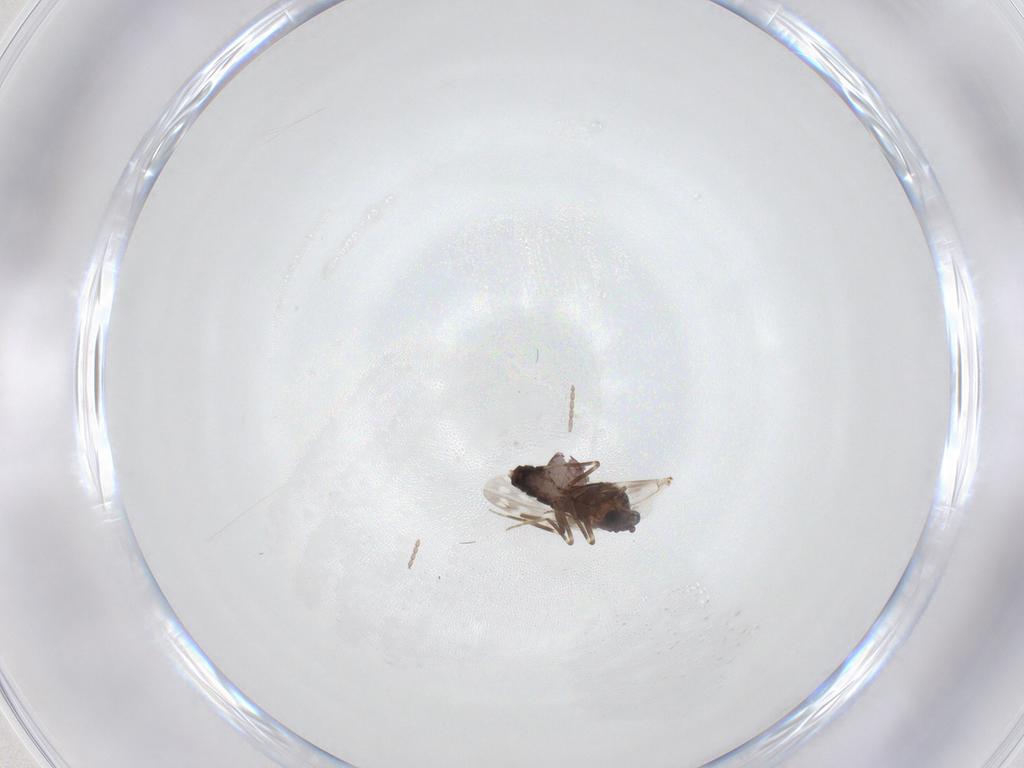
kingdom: Animalia
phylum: Arthropoda
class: Insecta
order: Diptera
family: Ceratopogonidae
